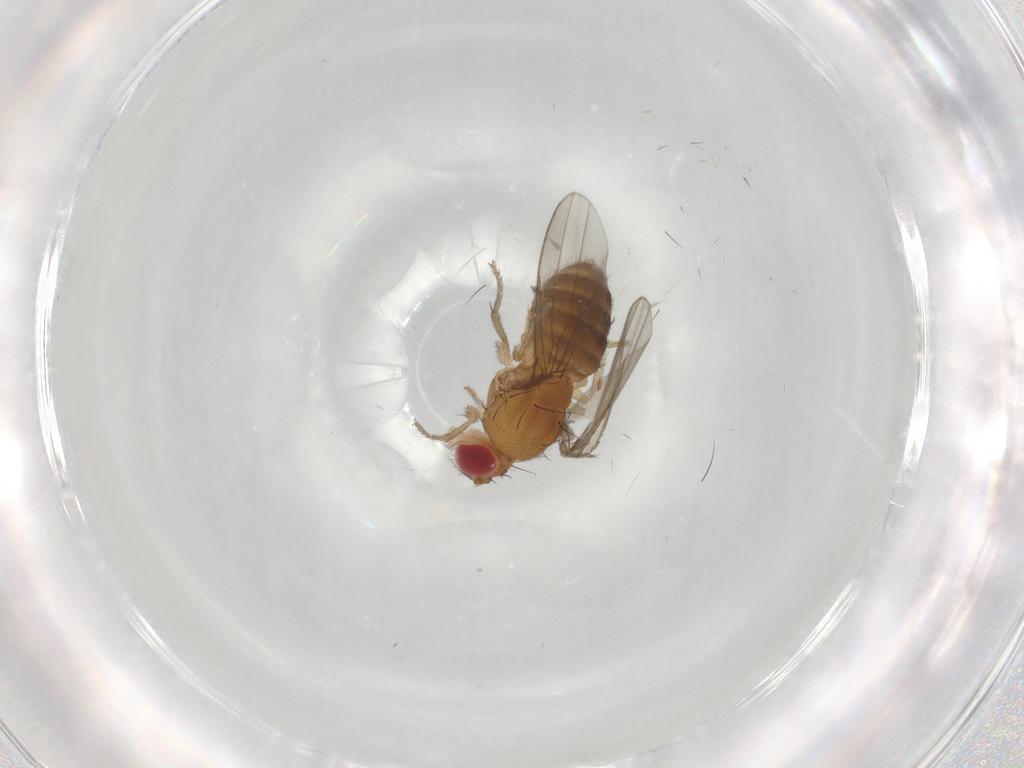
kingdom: Animalia
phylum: Arthropoda
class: Insecta
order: Diptera
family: Drosophilidae
